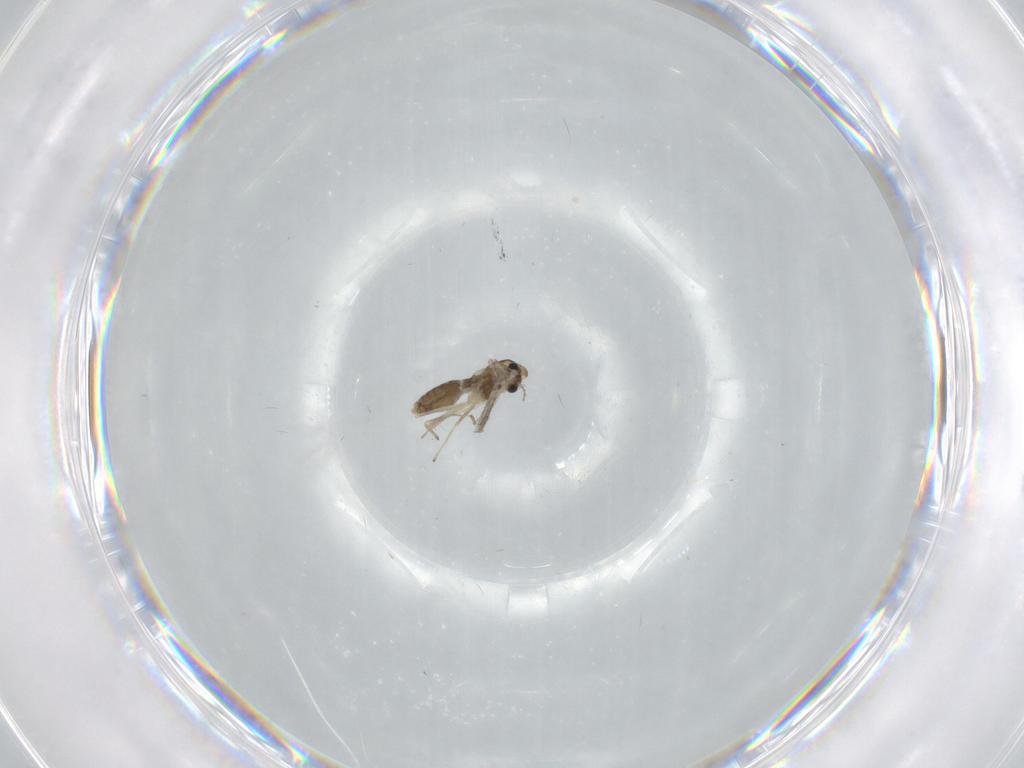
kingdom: Animalia
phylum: Arthropoda
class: Insecta
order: Diptera
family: Chironomidae
